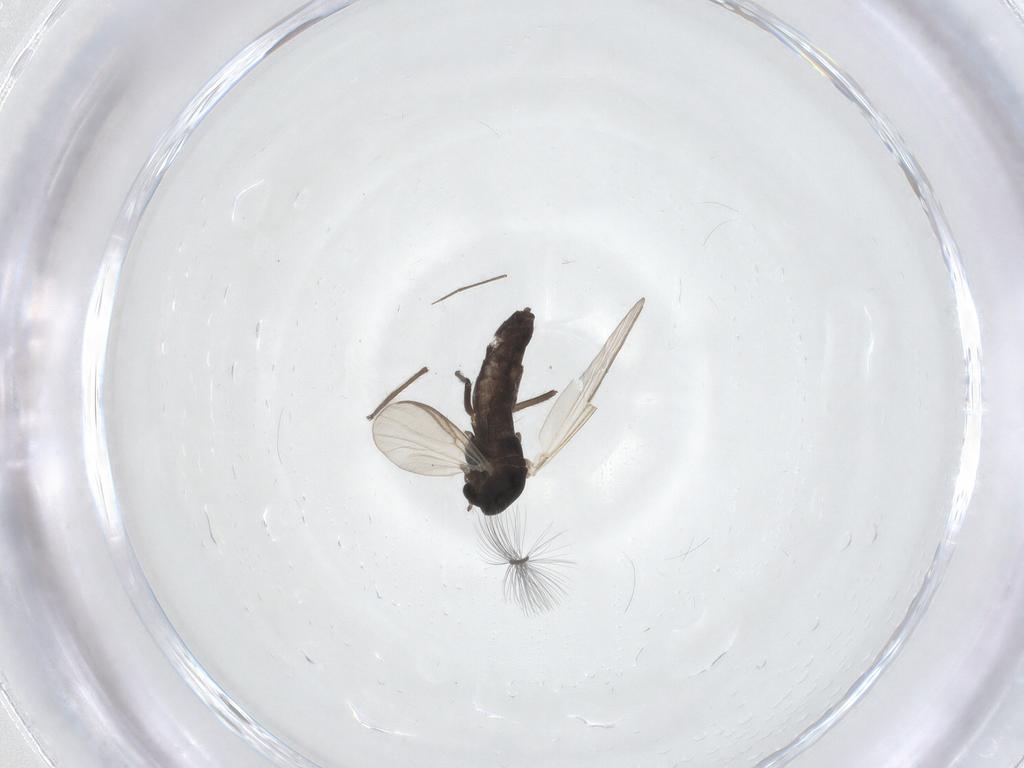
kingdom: Animalia
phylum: Arthropoda
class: Insecta
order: Diptera
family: Chironomidae
